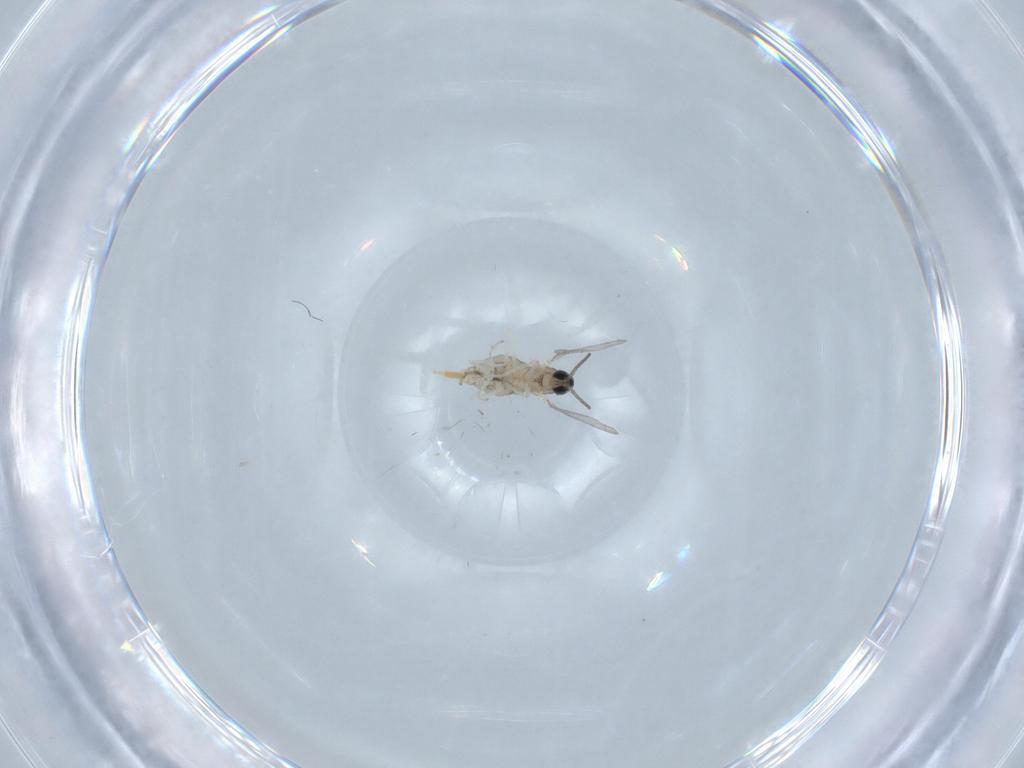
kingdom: Animalia
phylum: Arthropoda
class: Insecta
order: Diptera
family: Cecidomyiidae
